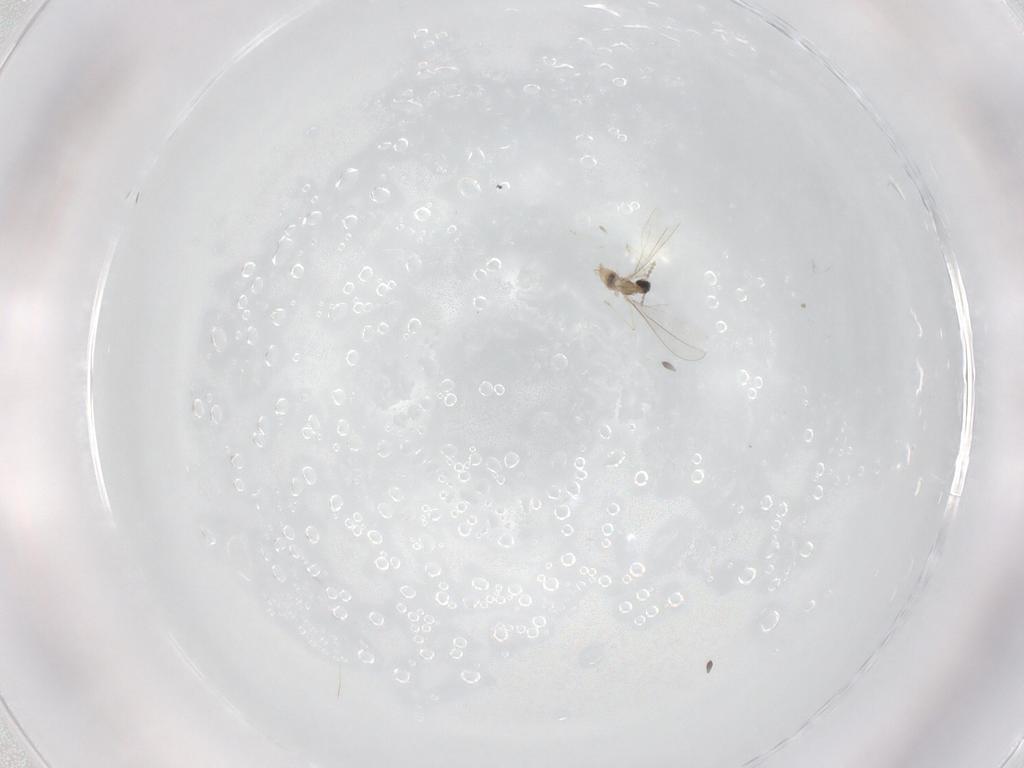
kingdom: Animalia
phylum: Arthropoda
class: Insecta
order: Diptera
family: Cecidomyiidae
